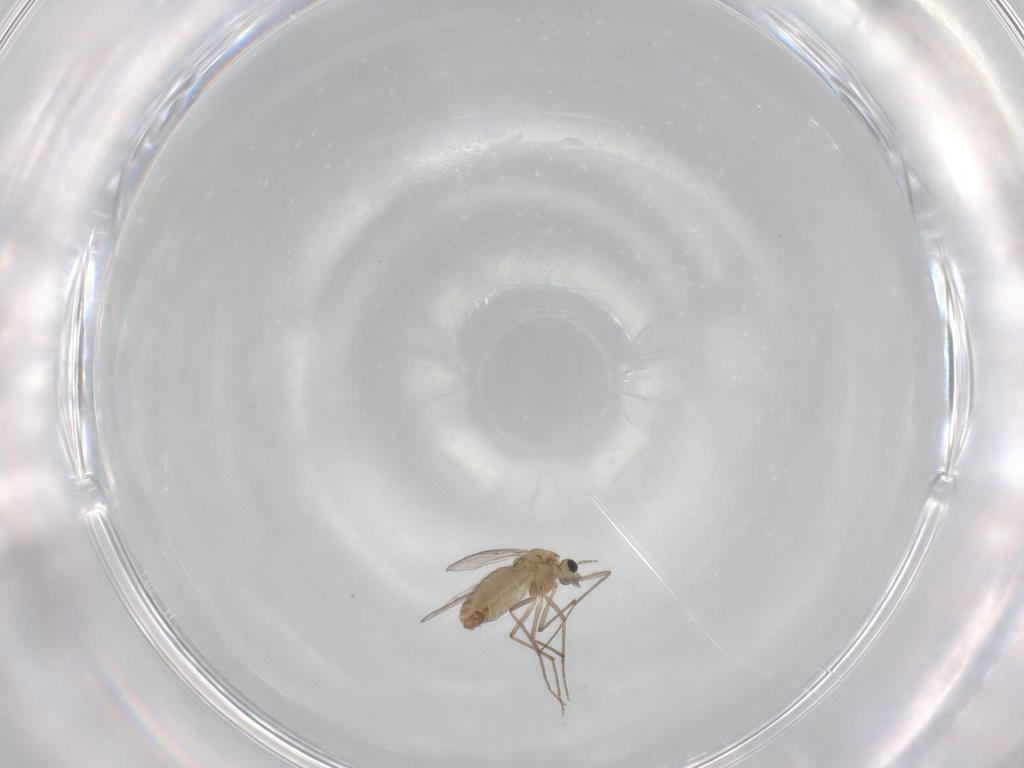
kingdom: Animalia
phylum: Arthropoda
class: Insecta
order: Diptera
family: Chironomidae
